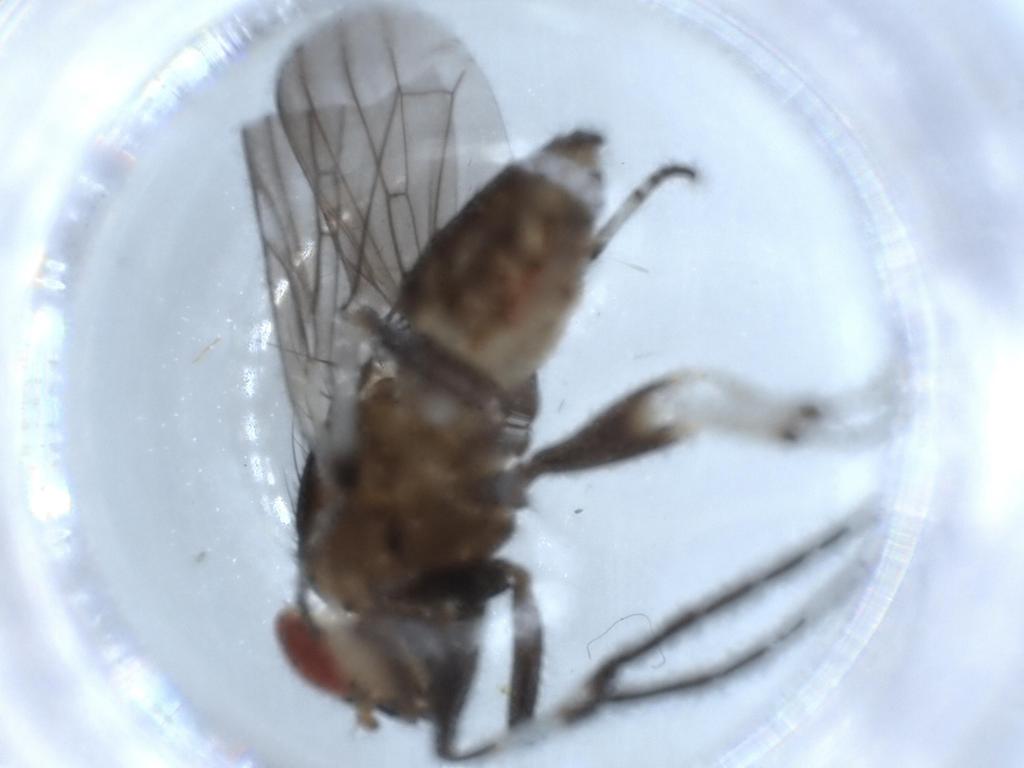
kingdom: Animalia
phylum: Arthropoda
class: Insecta
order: Diptera
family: Lauxaniidae
